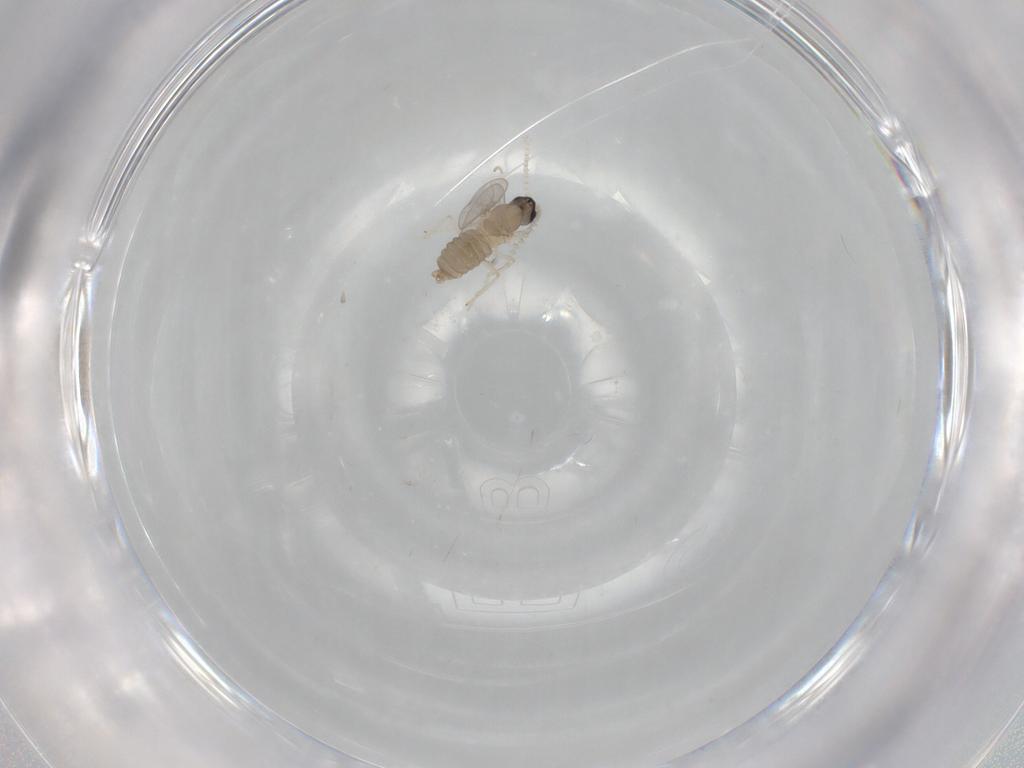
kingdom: Animalia
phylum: Arthropoda
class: Insecta
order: Diptera
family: Cecidomyiidae
